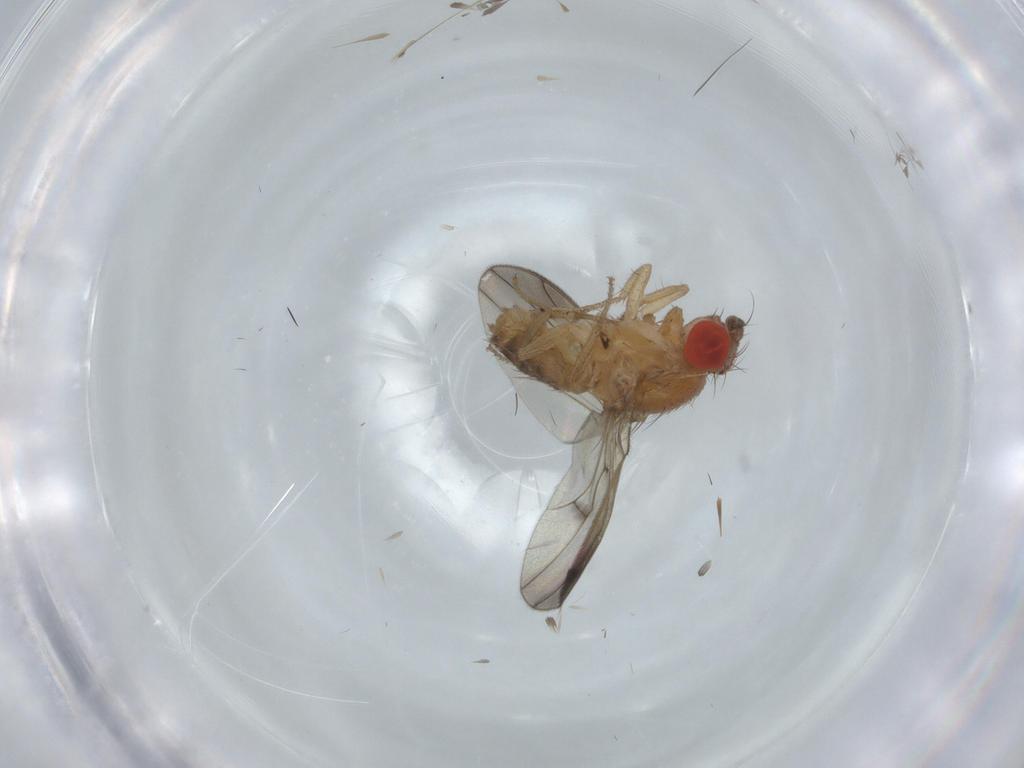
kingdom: Animalia
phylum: Arthropoda
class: Insecta
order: Diptera
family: Drosophilidae
